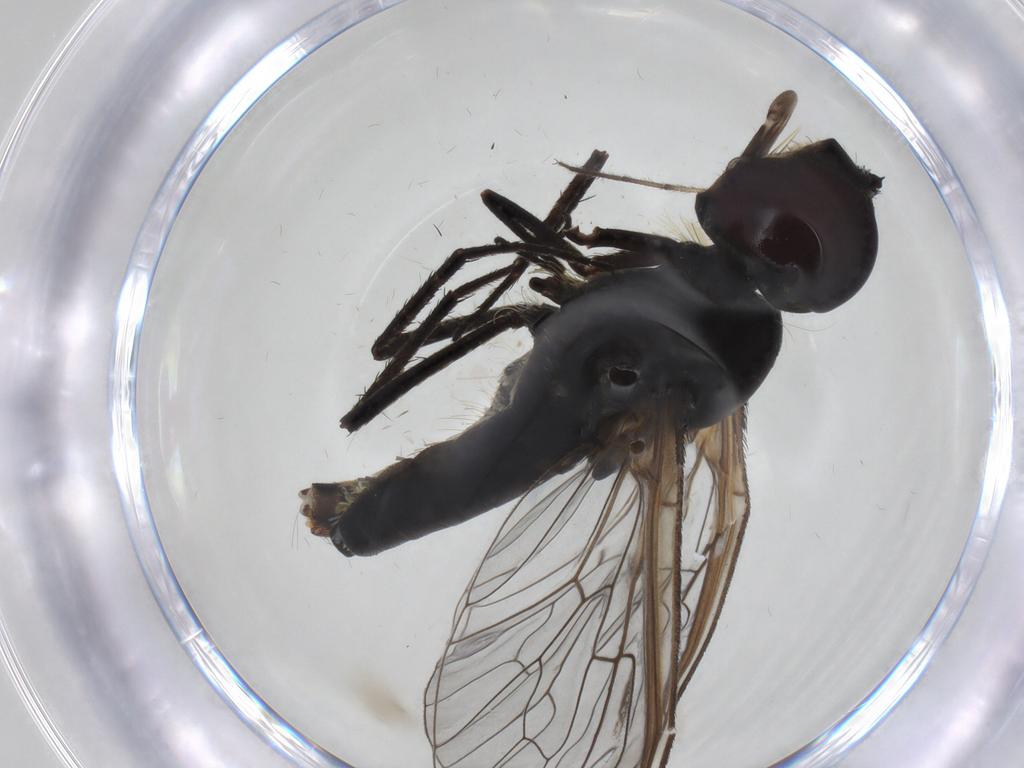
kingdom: Animalia
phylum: Arthropoda
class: Insecta
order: Diptera
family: Bombyliidae
